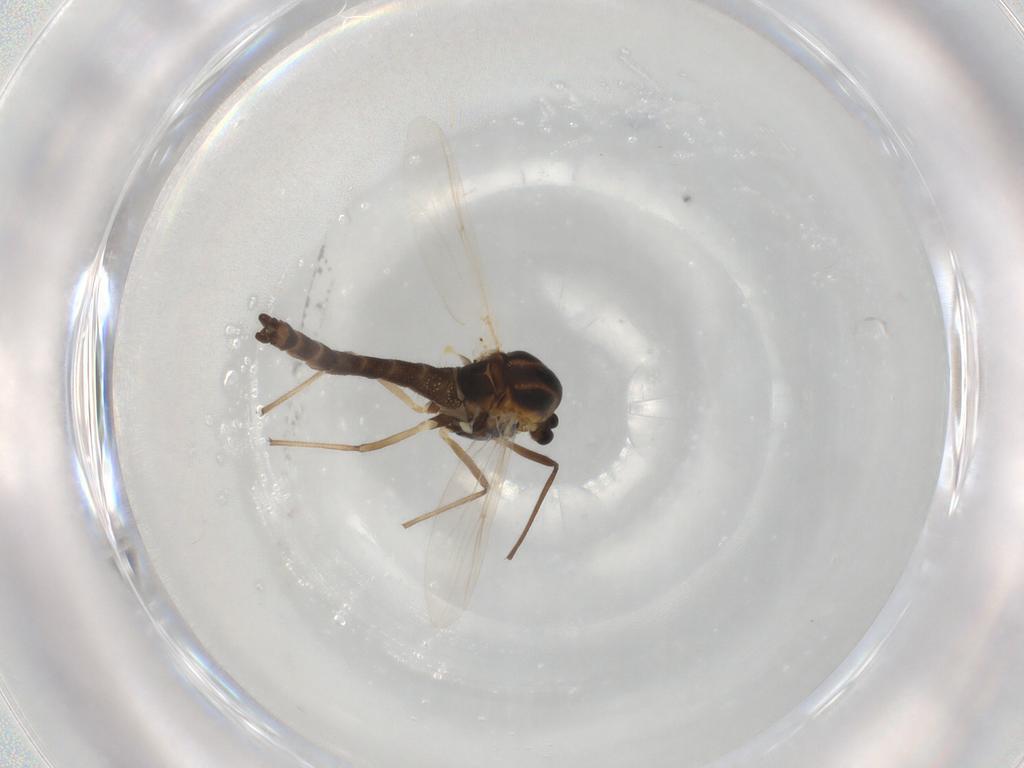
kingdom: Animalia
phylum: Arthropoda
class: Insecta
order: Diptera
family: Chironomidae
